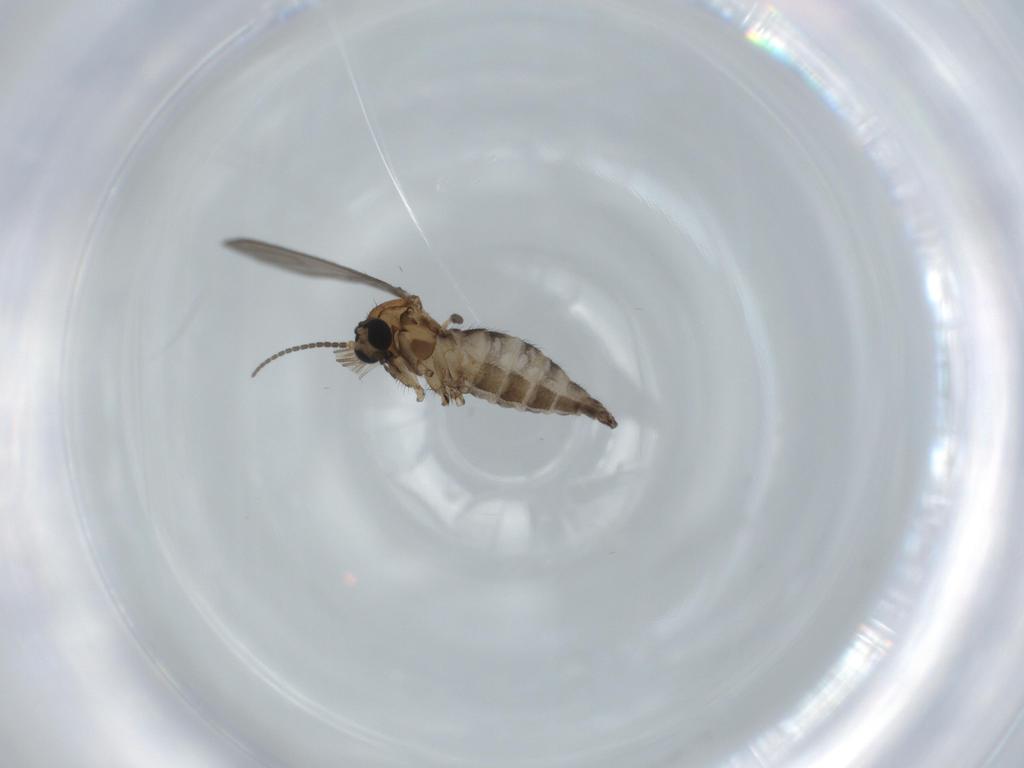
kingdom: Animalia
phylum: Arthropoda
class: Insecta
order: Diptera
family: Sciaridae
